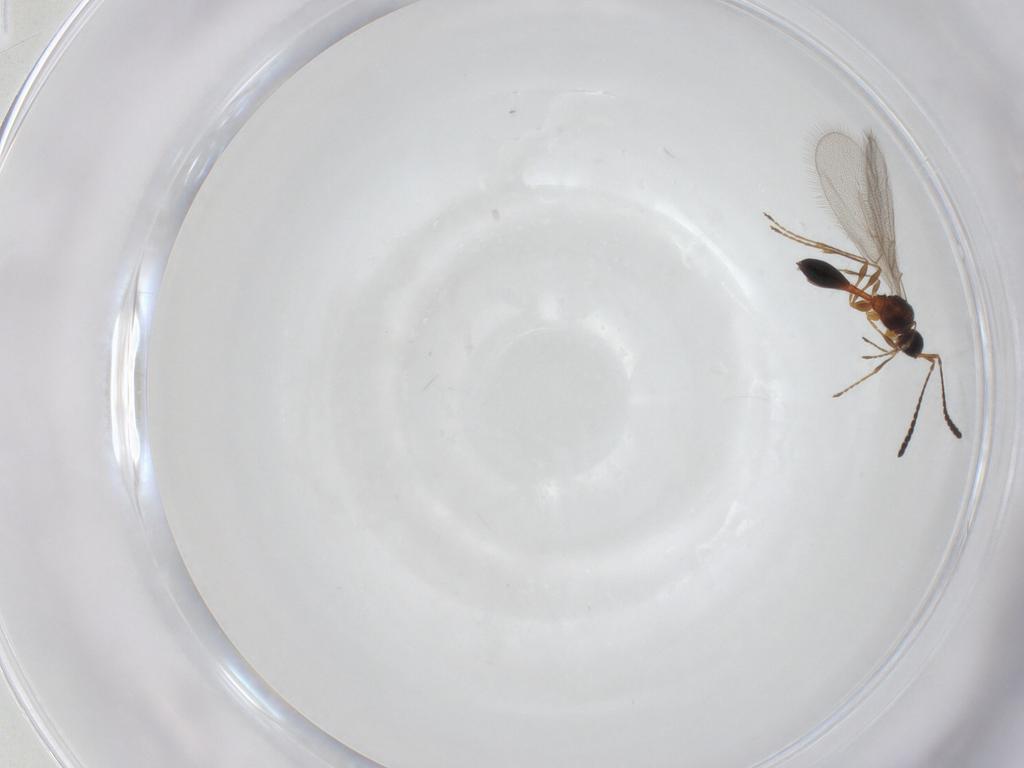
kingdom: Animalia
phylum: Arthropoda
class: Insecta
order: Hymenoptera
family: Diapriidae
